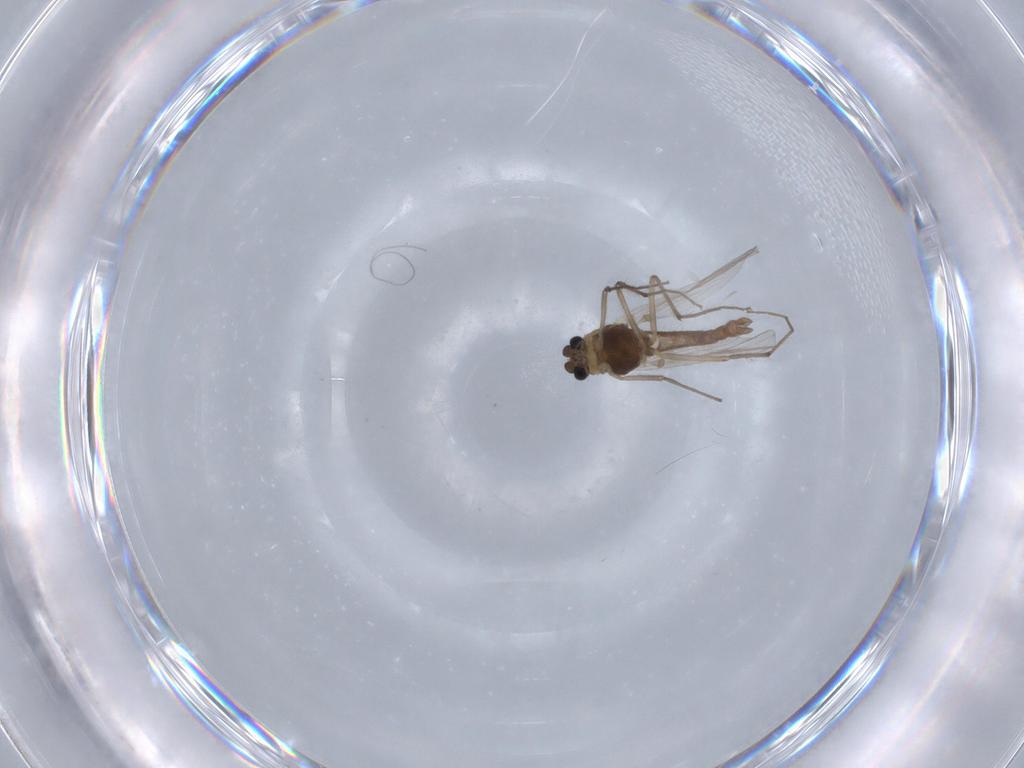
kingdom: Animalia
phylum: Arthropoda
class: Insecta
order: Diptera
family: Chironomidae
